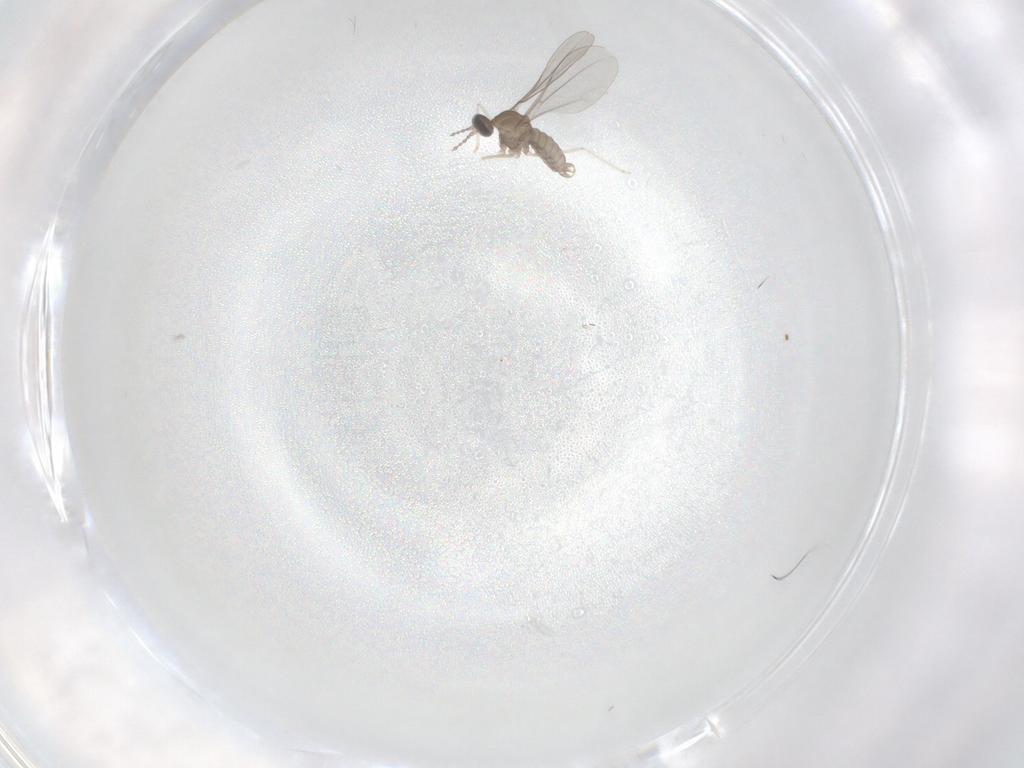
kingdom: Animalia
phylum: Arthropoda
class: Insecta
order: Diptera
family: Cecidomyiidae
